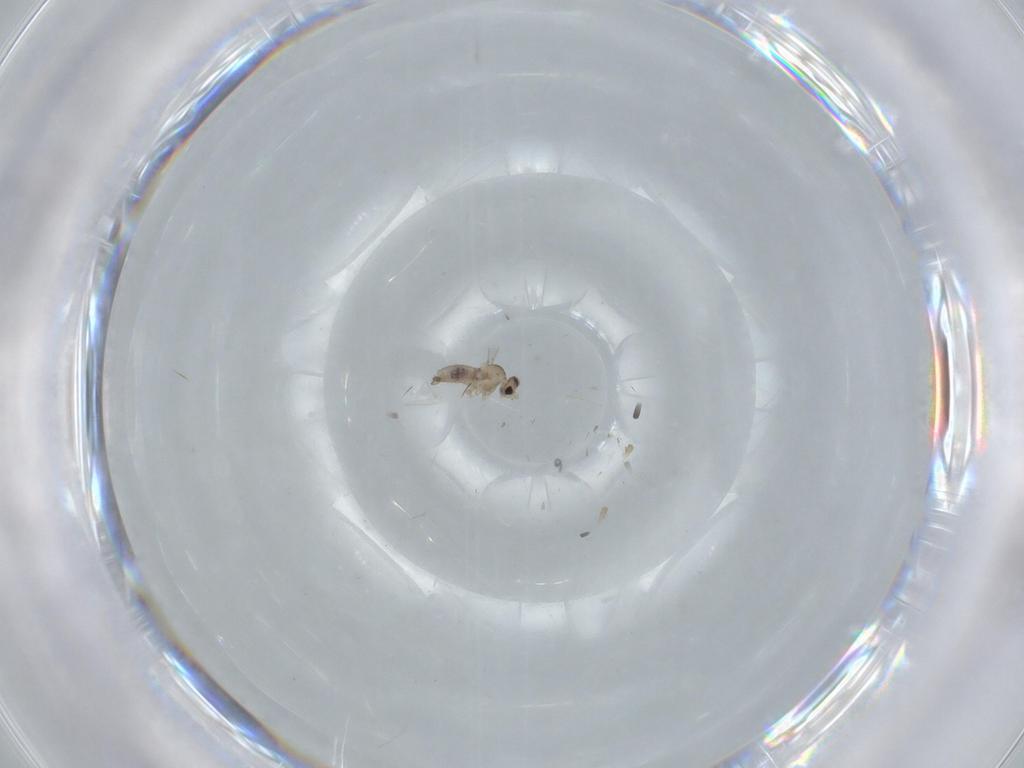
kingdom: Animalia
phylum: Arthropoda
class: Insecta
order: Diptera
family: Cecidomyiidae
